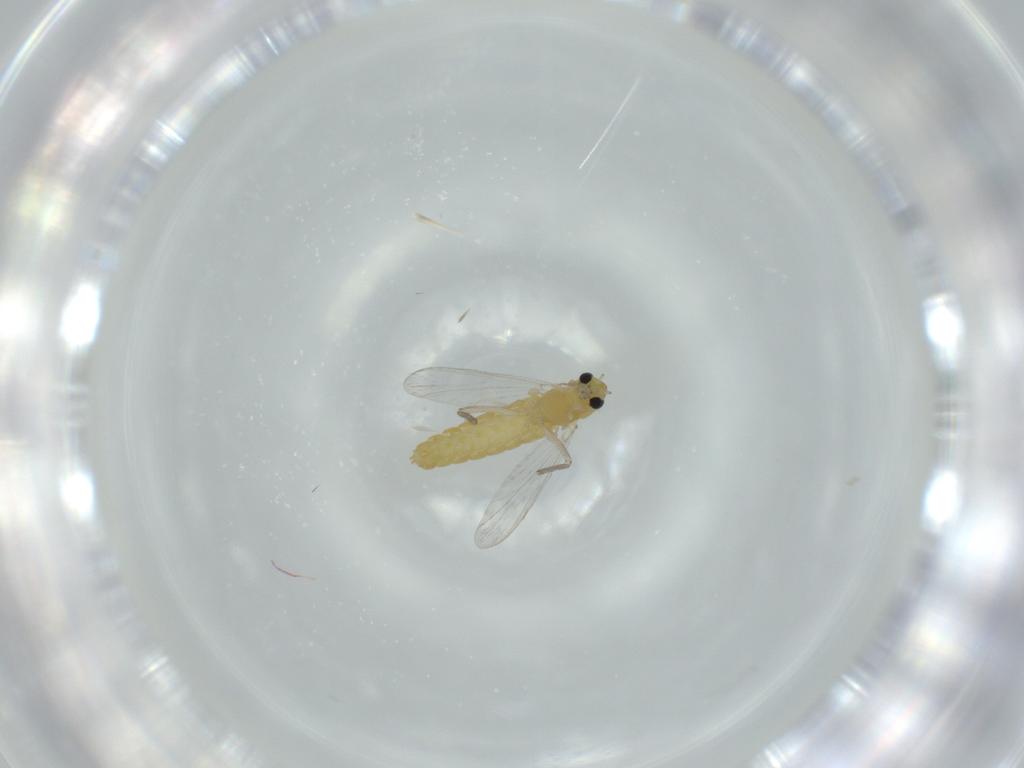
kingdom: Animalia
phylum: Arthropoda
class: Insecta
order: Diptera
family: Chironomidae
